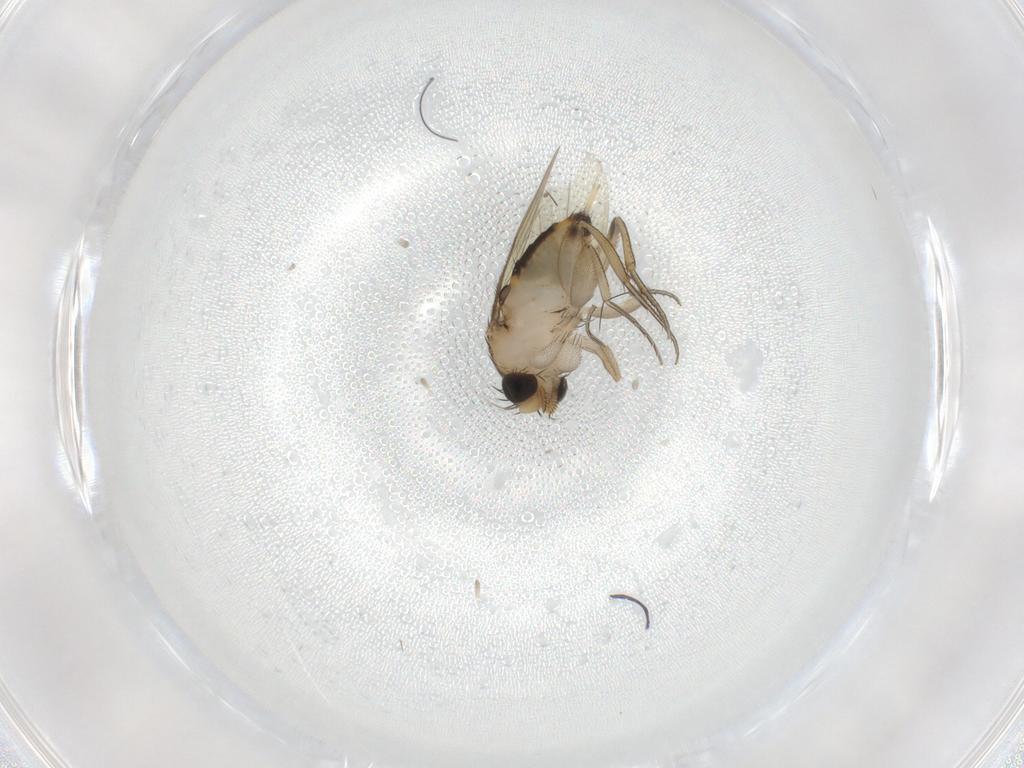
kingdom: Animalia
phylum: Arthropoda
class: Insecta
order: Diptera
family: Phoridae
